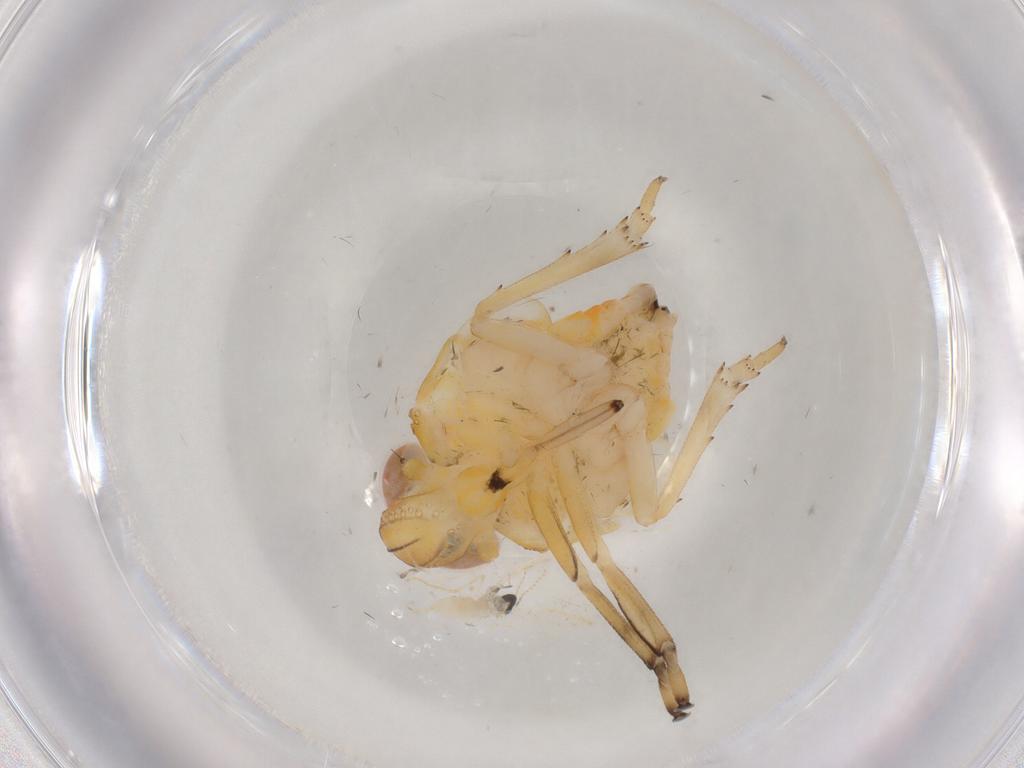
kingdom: Animalia
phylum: Arthropoda
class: Insecta
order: Hemiptera
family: Issidae
